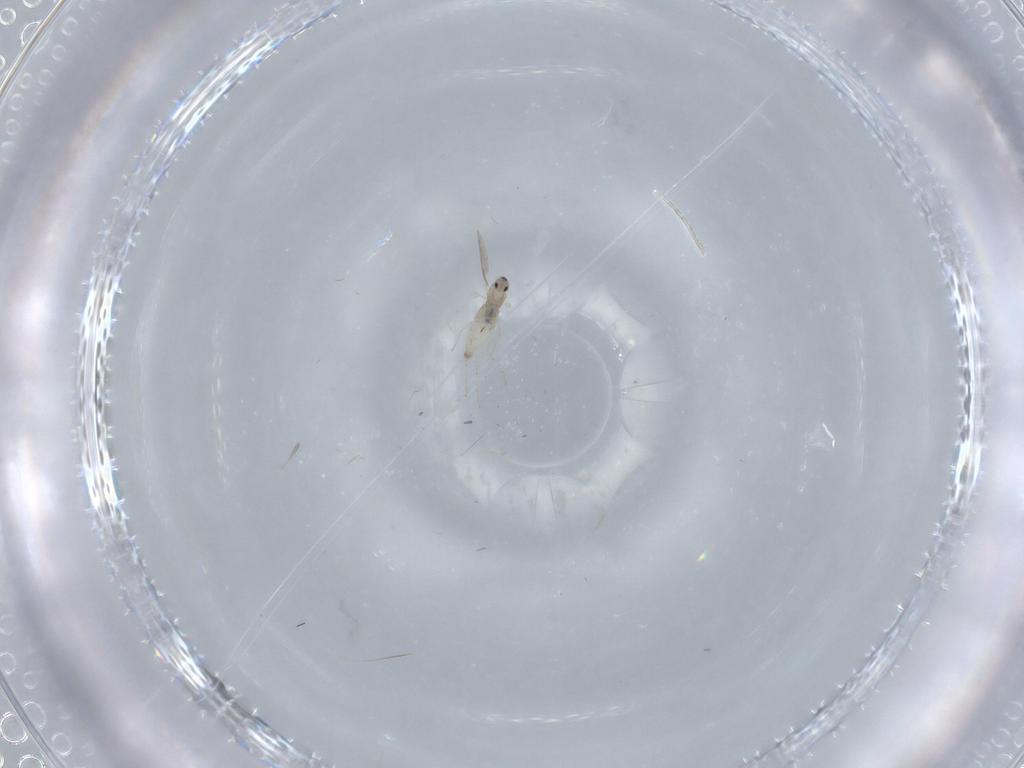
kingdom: Animalia
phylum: Arthropoda
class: Insecta
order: Diptera
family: Cecidomyiidae
